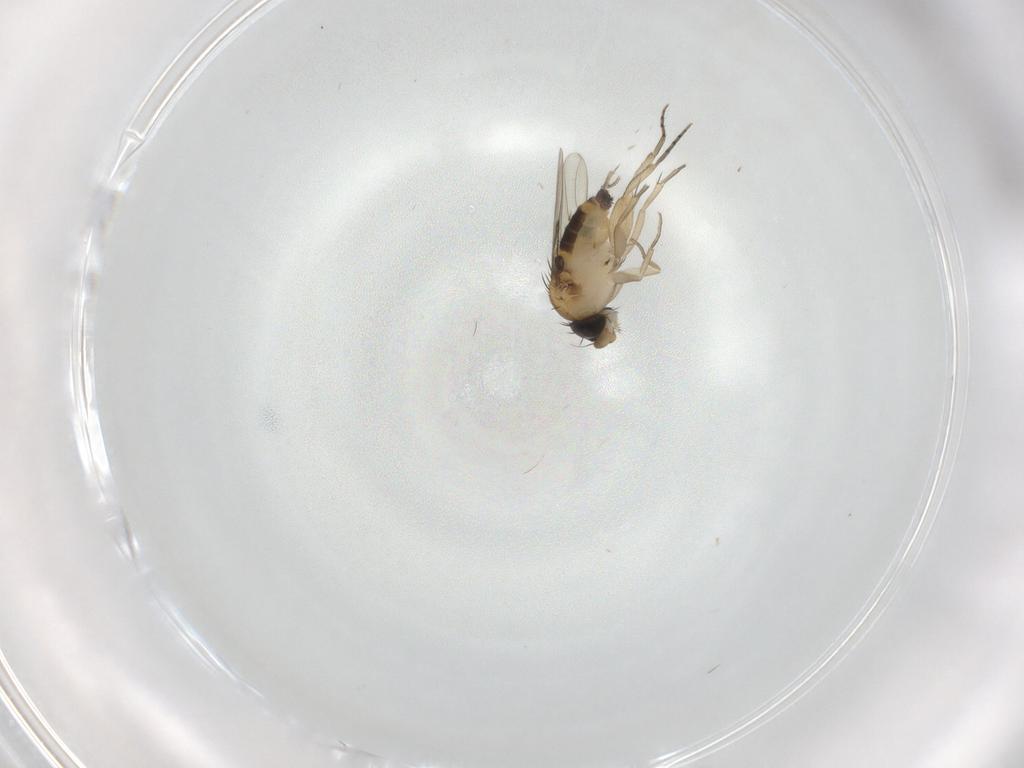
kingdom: Animalia
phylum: Arthropoda
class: Insecta
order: Diptera
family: Phoridae
